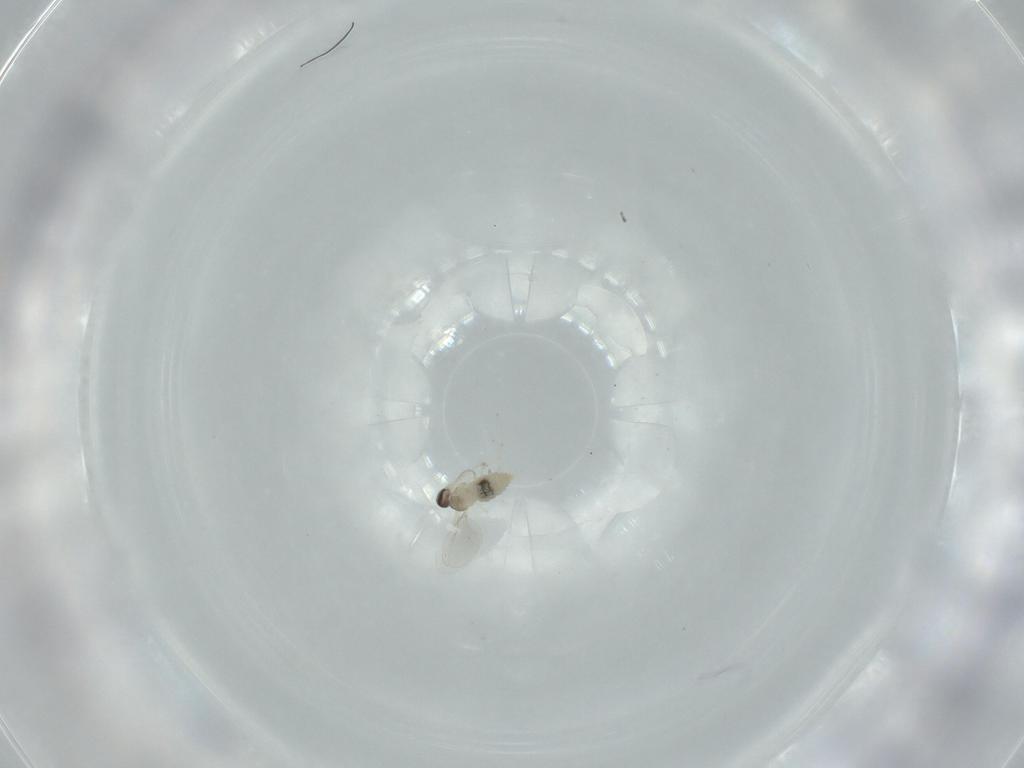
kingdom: Animalia
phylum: Arthropoda
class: Insecta
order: Diptera
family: Cecidomyiidae
